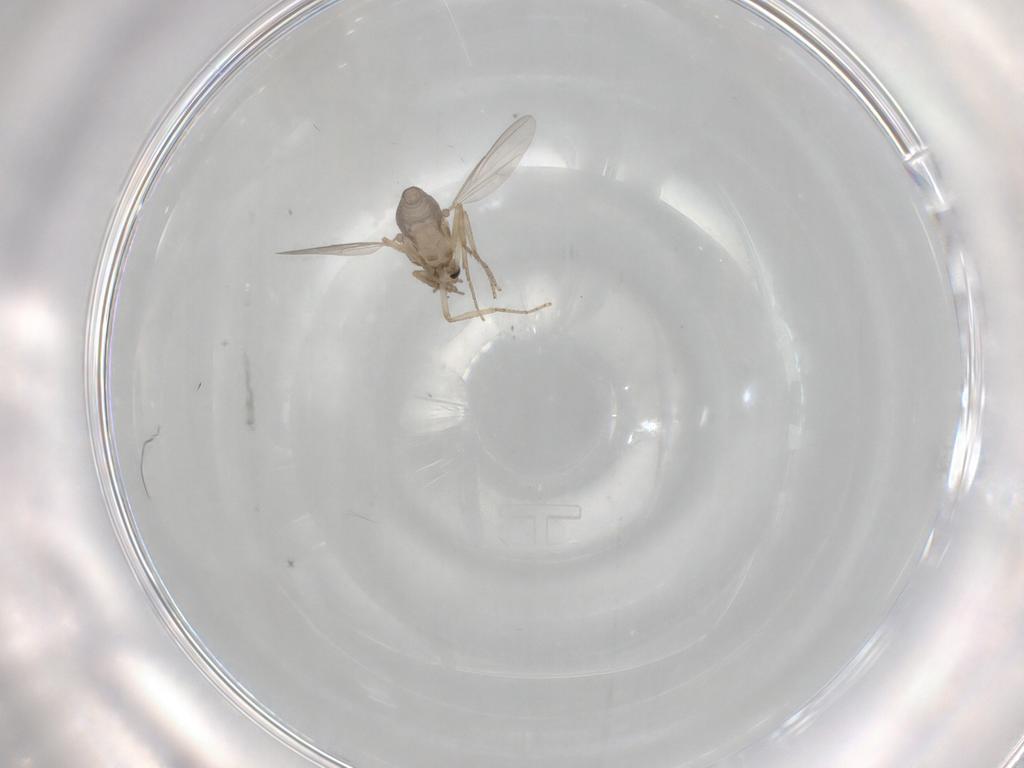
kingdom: Animalia
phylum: Arthropoda
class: Insecta
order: Diptera
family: Ceratopogonidae
